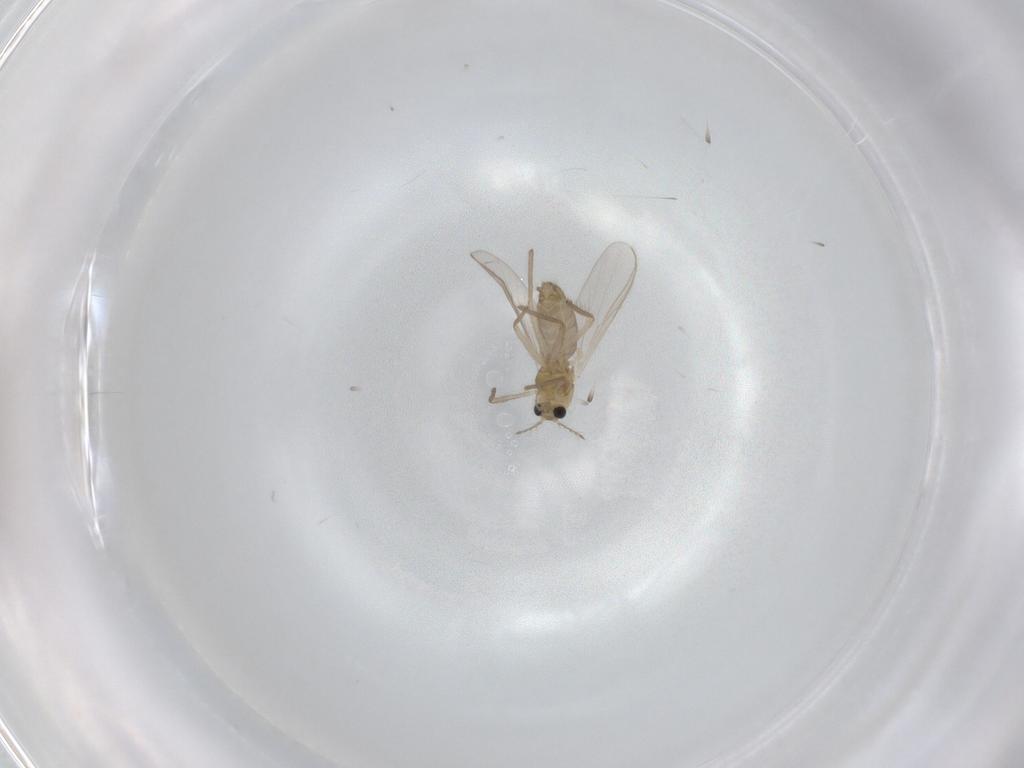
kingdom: Animalia
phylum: Arthropoda
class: Insecta
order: Diptera
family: Chironomidae
